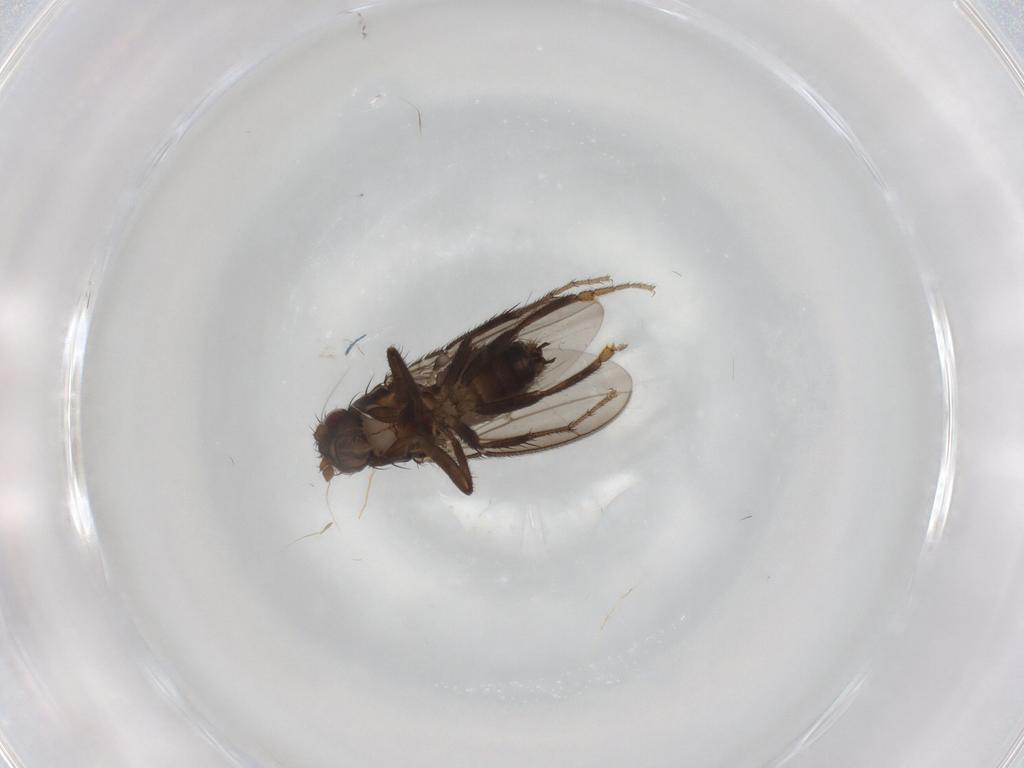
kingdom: Animalia
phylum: Arthropoda
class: Insecta
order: Diptera
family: Sphaeroceridae
